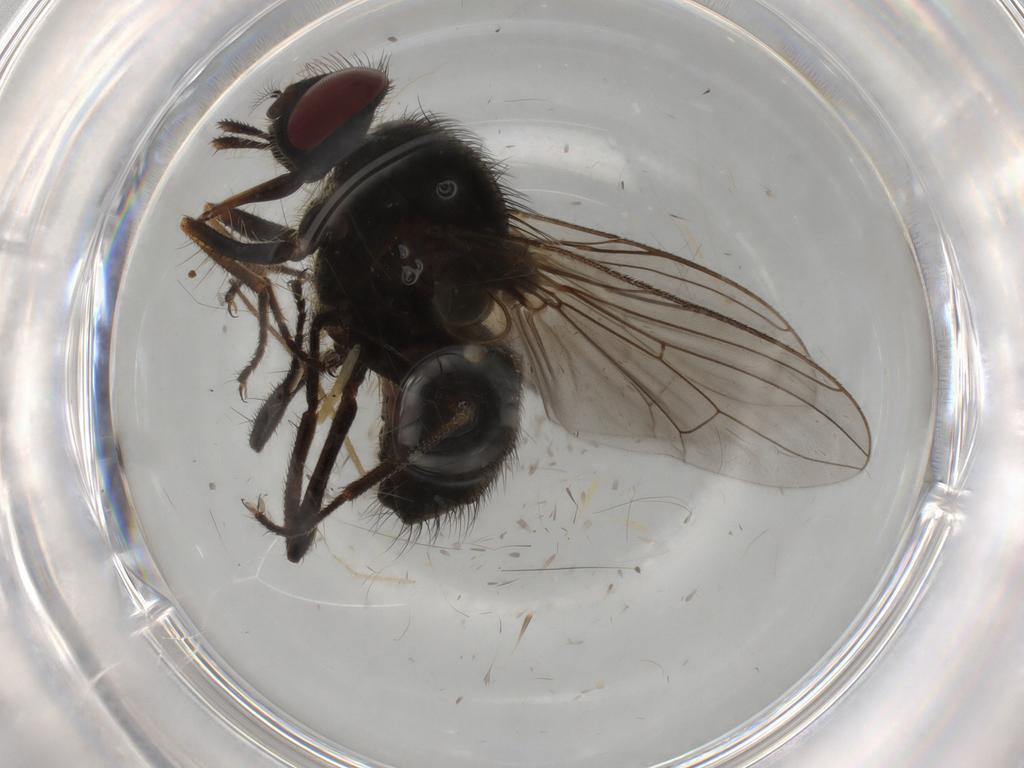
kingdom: Animalia
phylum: Arthropoda
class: Insecta
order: Diptera
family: Chironomidae
